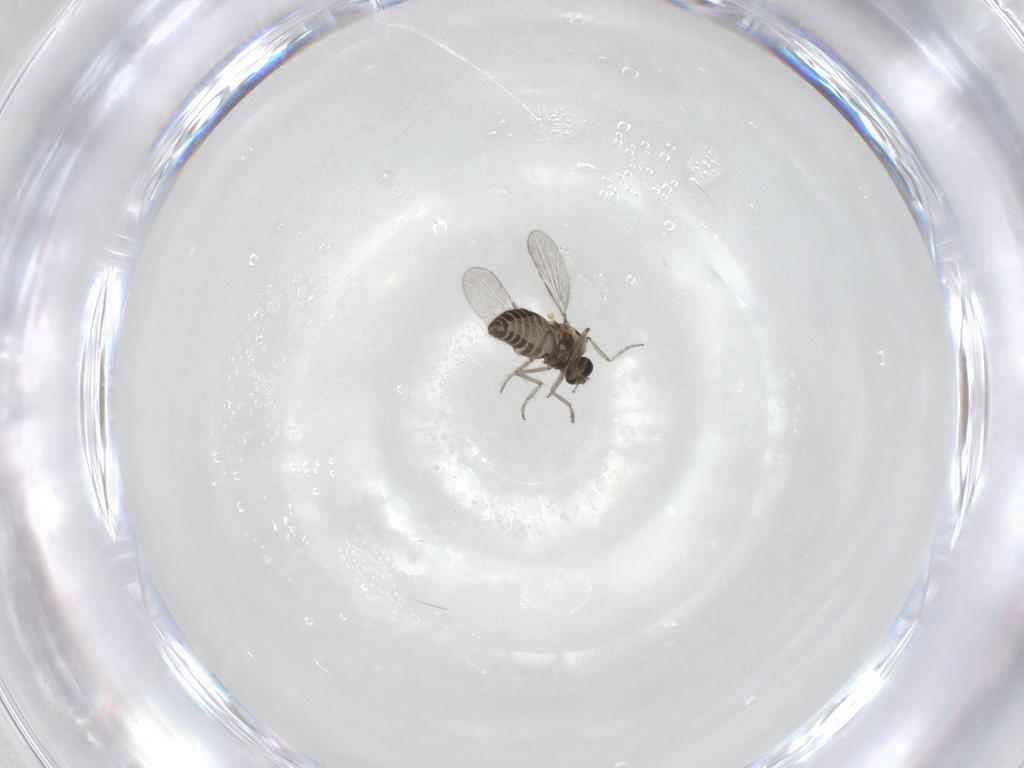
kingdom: Animalia
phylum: Arthropoda
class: Insecta
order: Diptera
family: Ceratopogonidae
